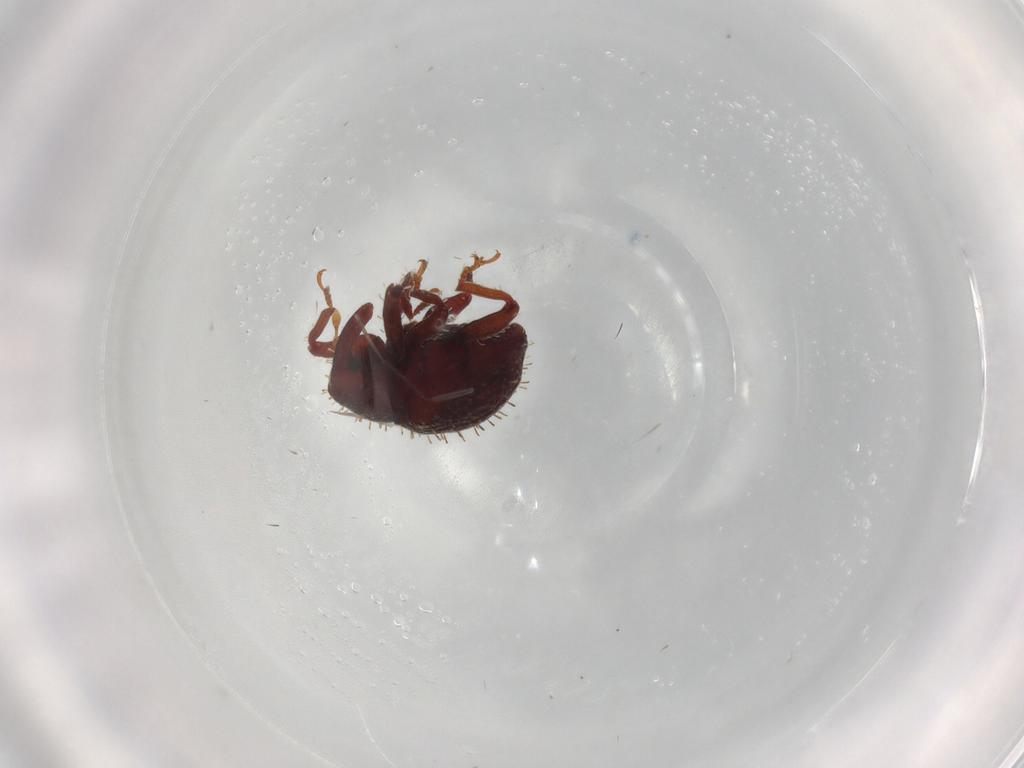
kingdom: Animalia
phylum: Arthropoda
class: Insecta
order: Coleoptera
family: Curculionidae
